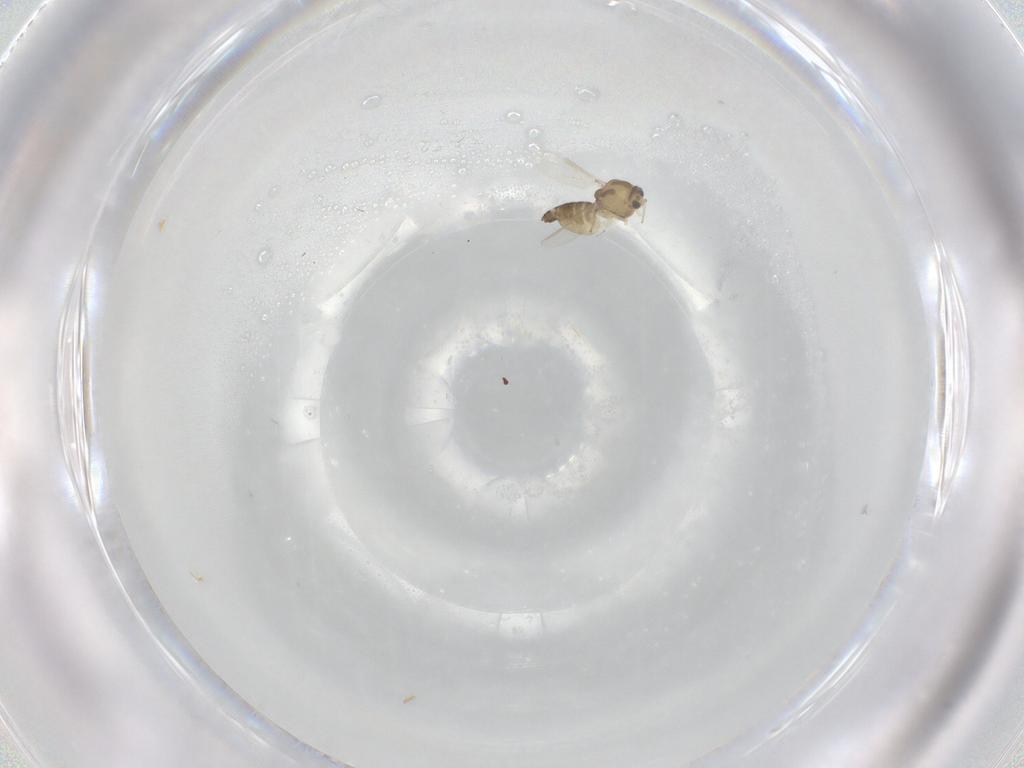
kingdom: Animalia
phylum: Arthropoda
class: Insecta
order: Diptera
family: Chironomidae
